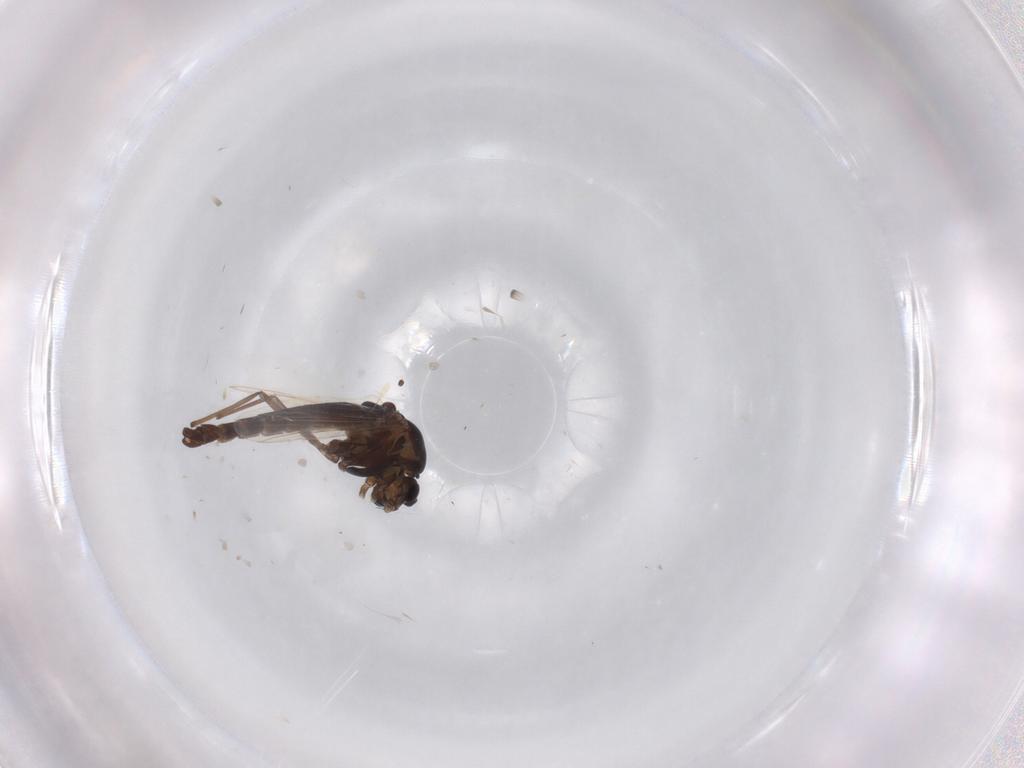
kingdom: Animalia
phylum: Arthropoda
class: Insecta
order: Diptera
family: Chironomidae
